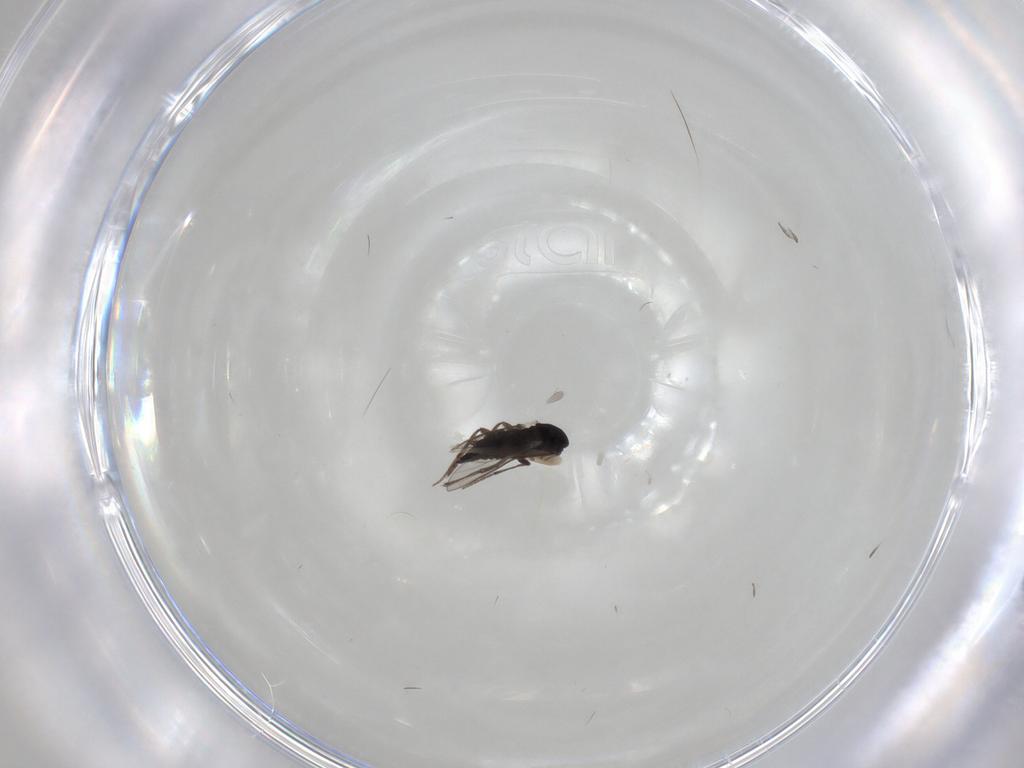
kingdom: Animalia
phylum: Arthropoda
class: Insecta
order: Diptera
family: Chironomidae
